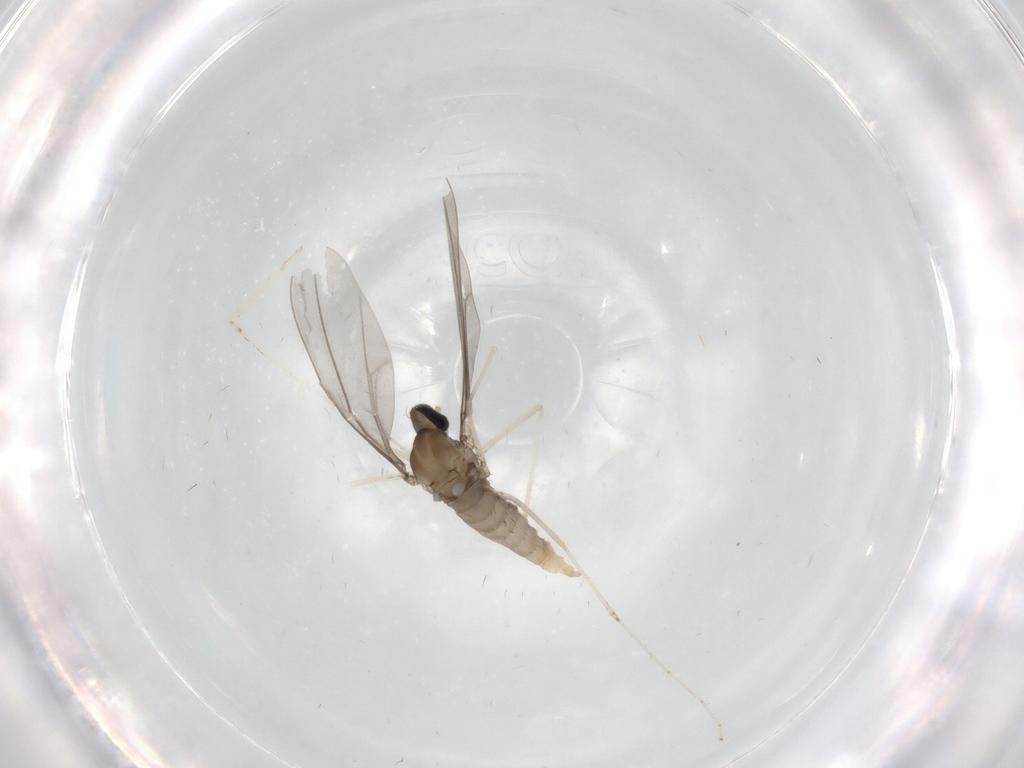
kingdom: Animalia
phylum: Arthropoda
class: Insecta
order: Diptera
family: Cecidomyiidae
